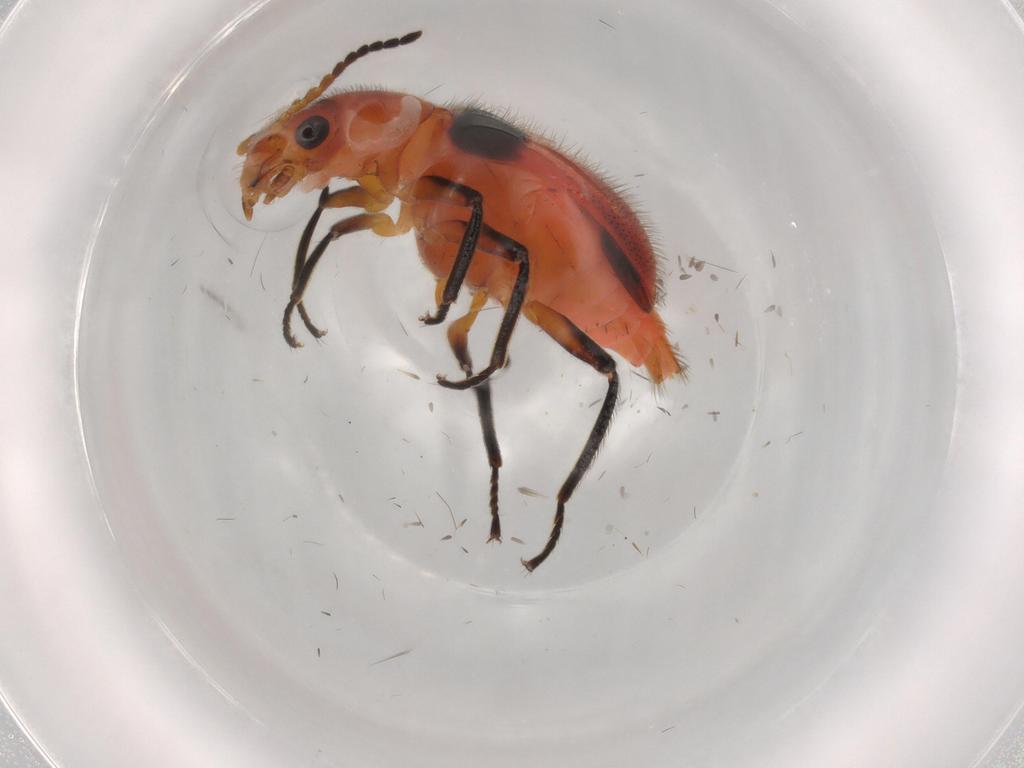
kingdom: Animalia
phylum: Arthropoda
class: Insecta
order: Coleoptera
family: Melyridae
